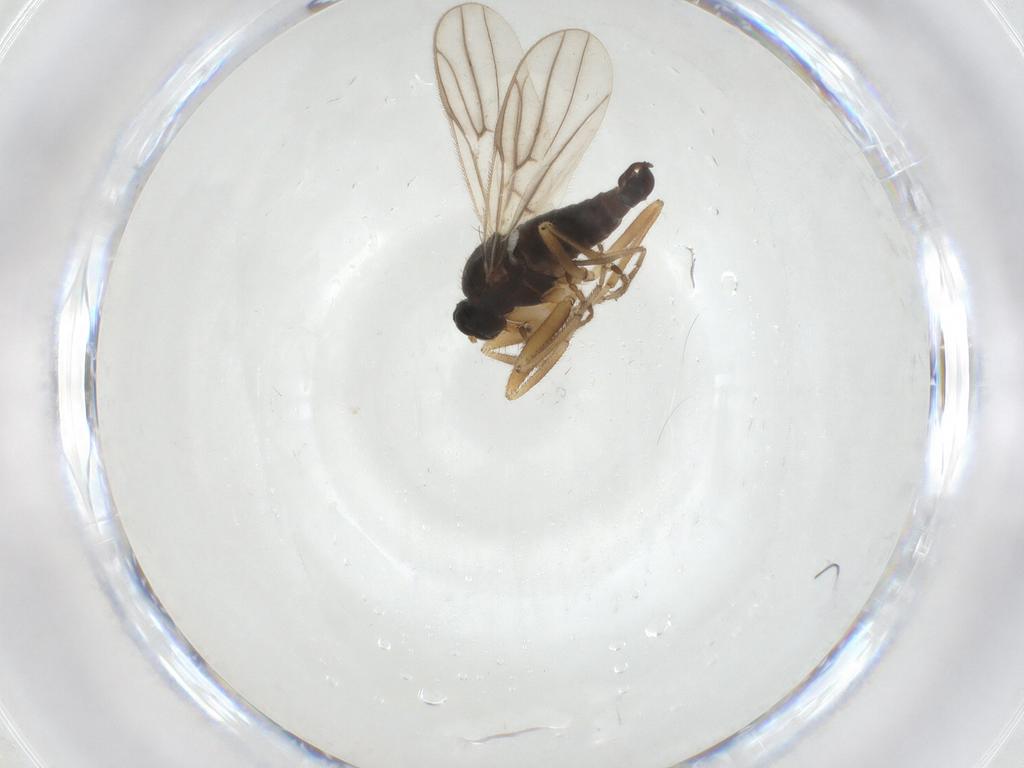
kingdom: Animalia
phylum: Arthropoda
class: Insecta
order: Diptera
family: Hybotidae
